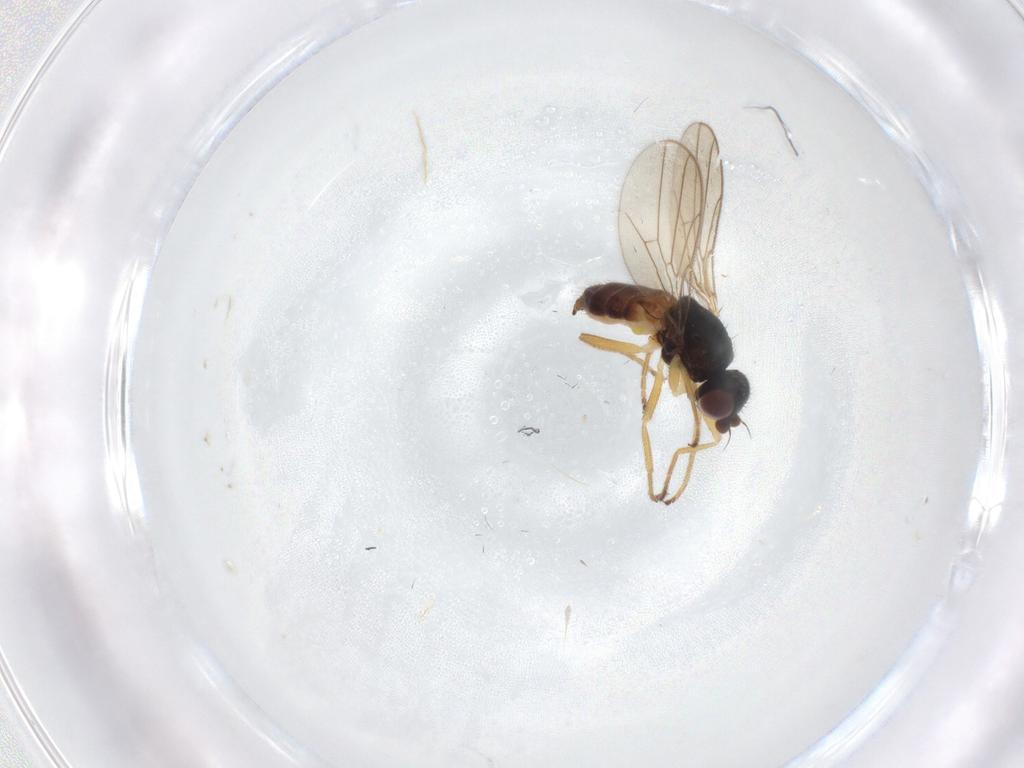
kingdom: Animalia
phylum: Arthropoda
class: Insecta
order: Diptera
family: Chloropidae
